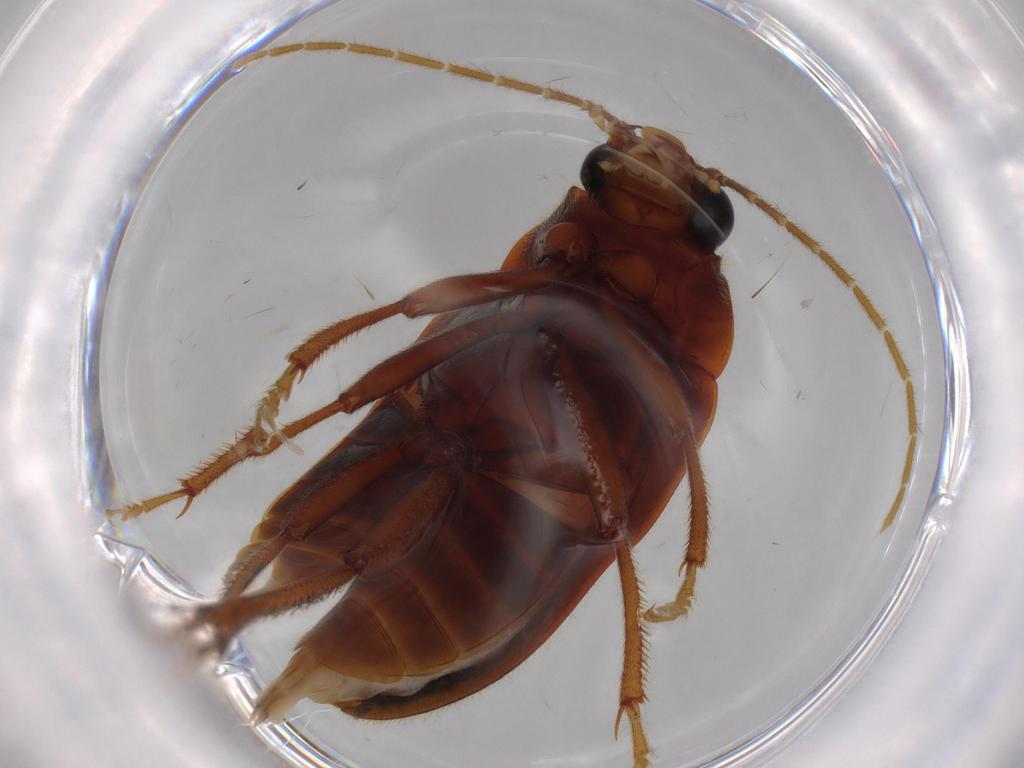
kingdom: Animalia
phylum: Arthropoda
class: Insecta
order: Coleoptera
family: Ptilodactylidae
